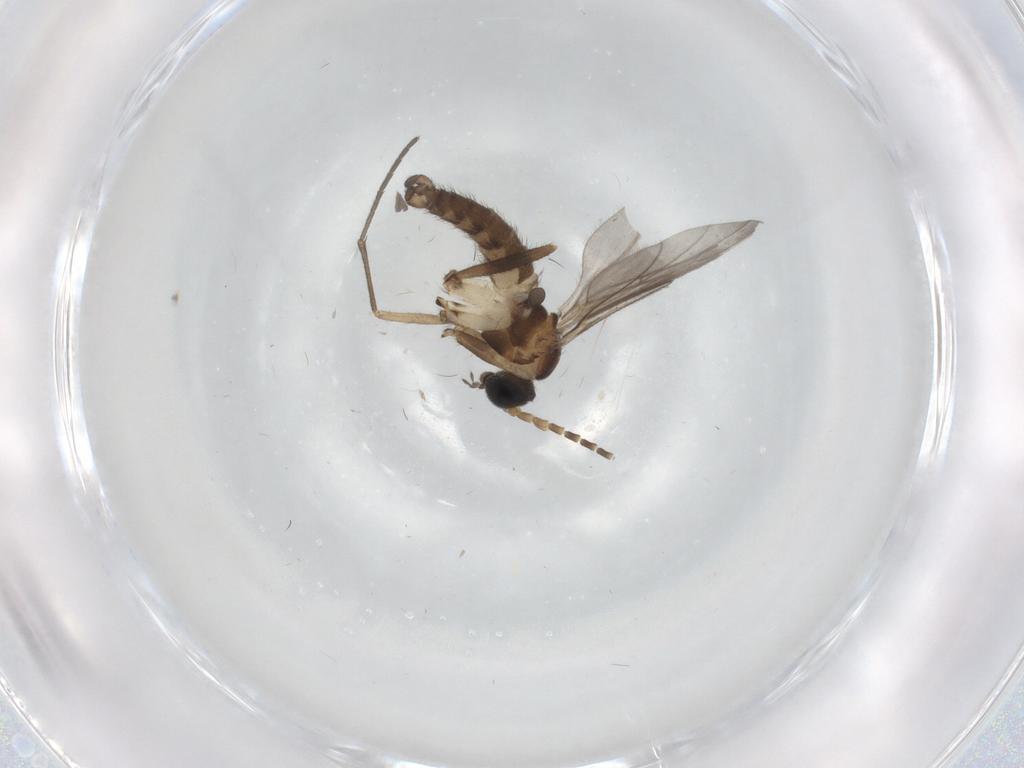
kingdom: Animalia
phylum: Arthropoda
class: Insecta
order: Diptera
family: Sciaridae
